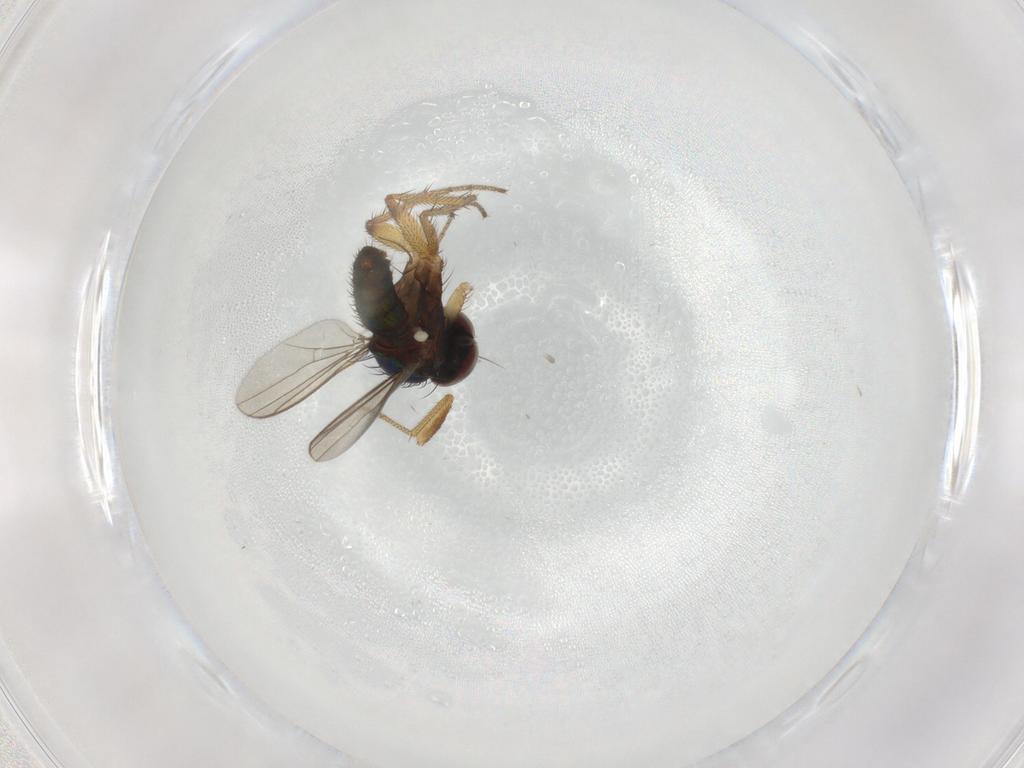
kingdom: Animalia
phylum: Arthropoda
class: Insecta
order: Diptera
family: Dolichopodidae
